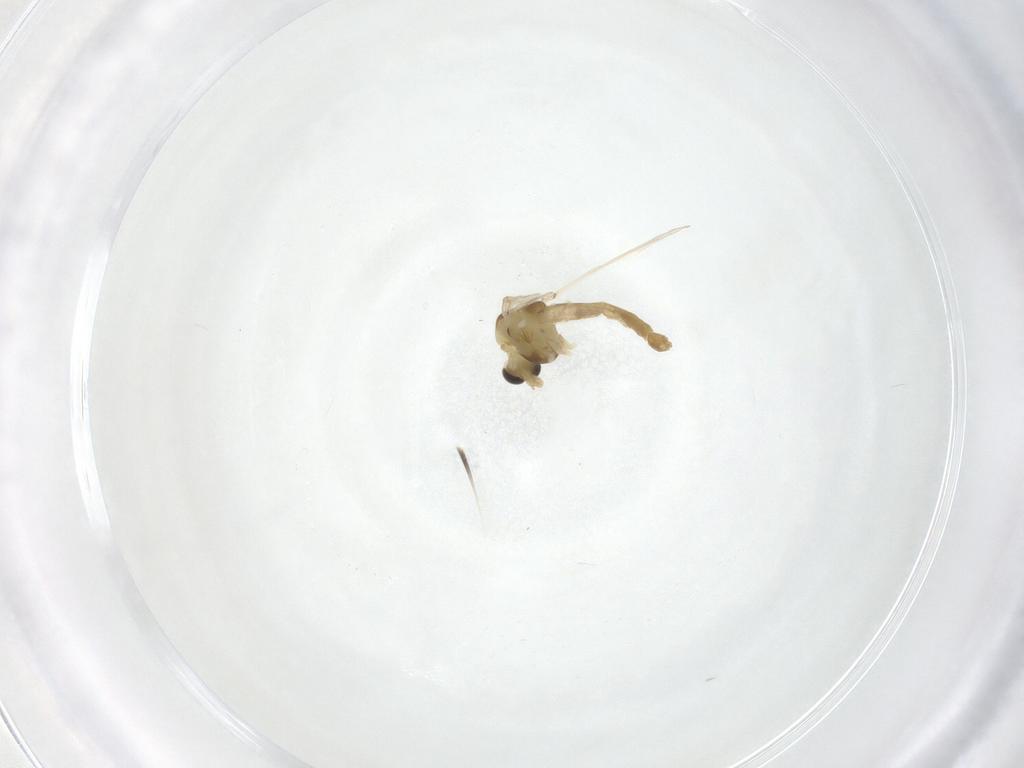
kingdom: Animalia
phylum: Arthropoda
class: Insecta
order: Diptera
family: Chironomidae
